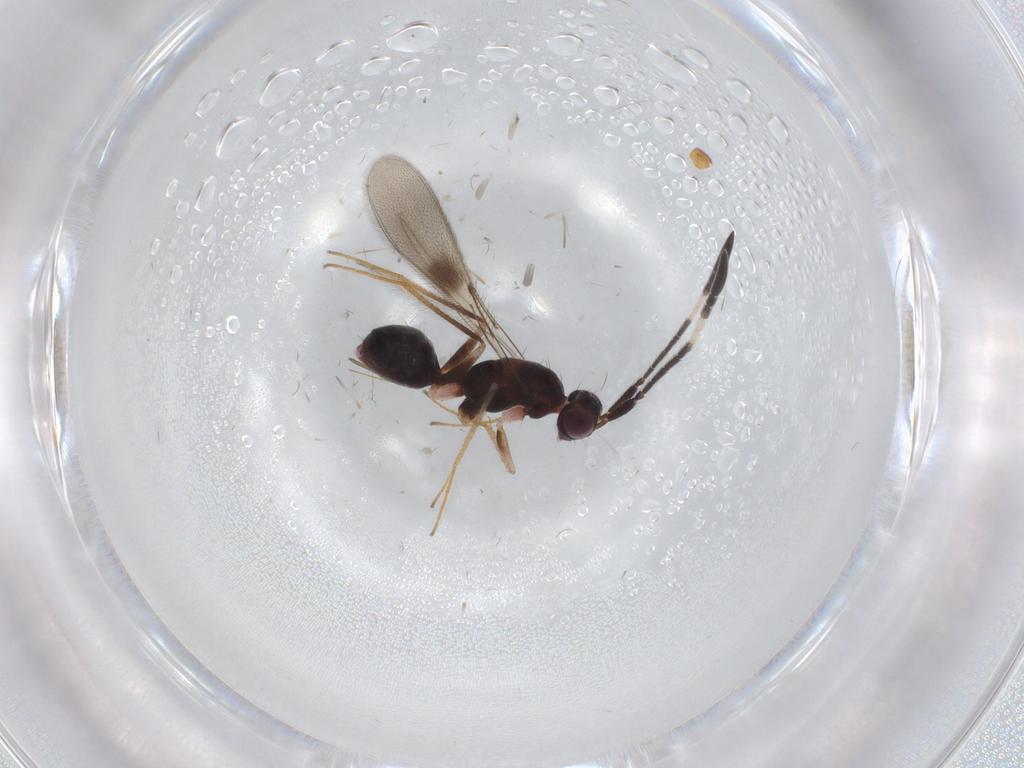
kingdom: Animalia
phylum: Arthropoda
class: Insecta
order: Hymenoptera
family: Mymaridae
